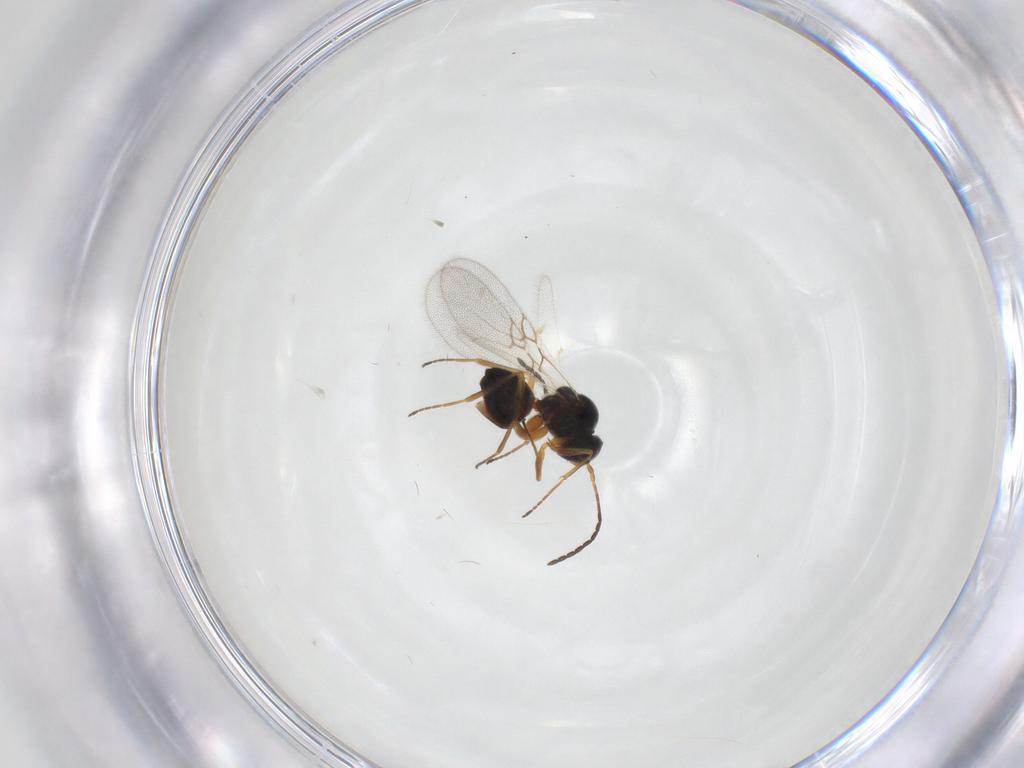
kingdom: Animalia
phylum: Arthropoda
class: Insecta
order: Hymenoptera
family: Figitidae
